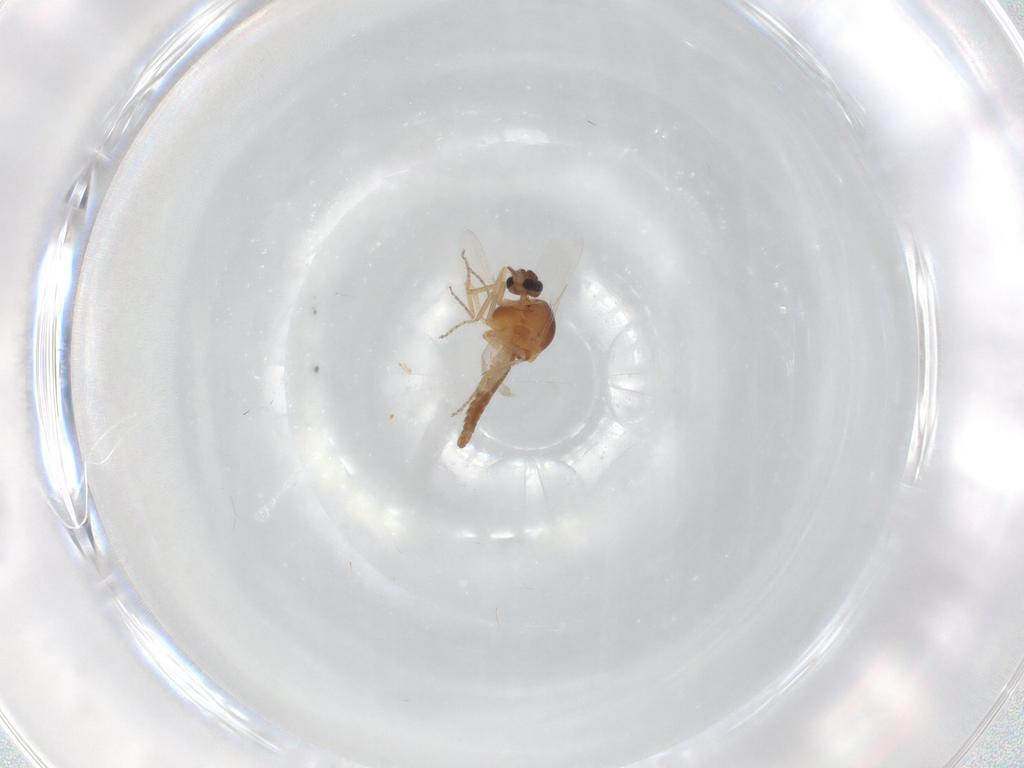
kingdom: Animalia
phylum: Arthropoda
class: Insecta
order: Diptera
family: Ceratopogonidae
